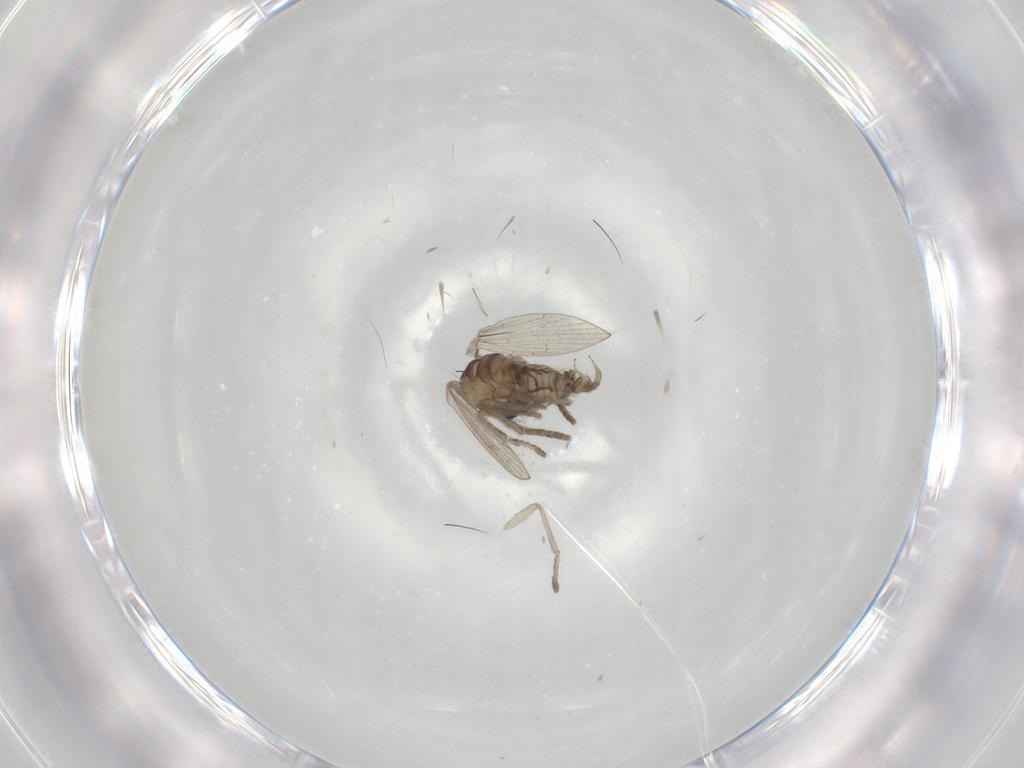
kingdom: Animalia
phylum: Arthropoda
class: Insecta
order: Diptera
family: Psychodidae
